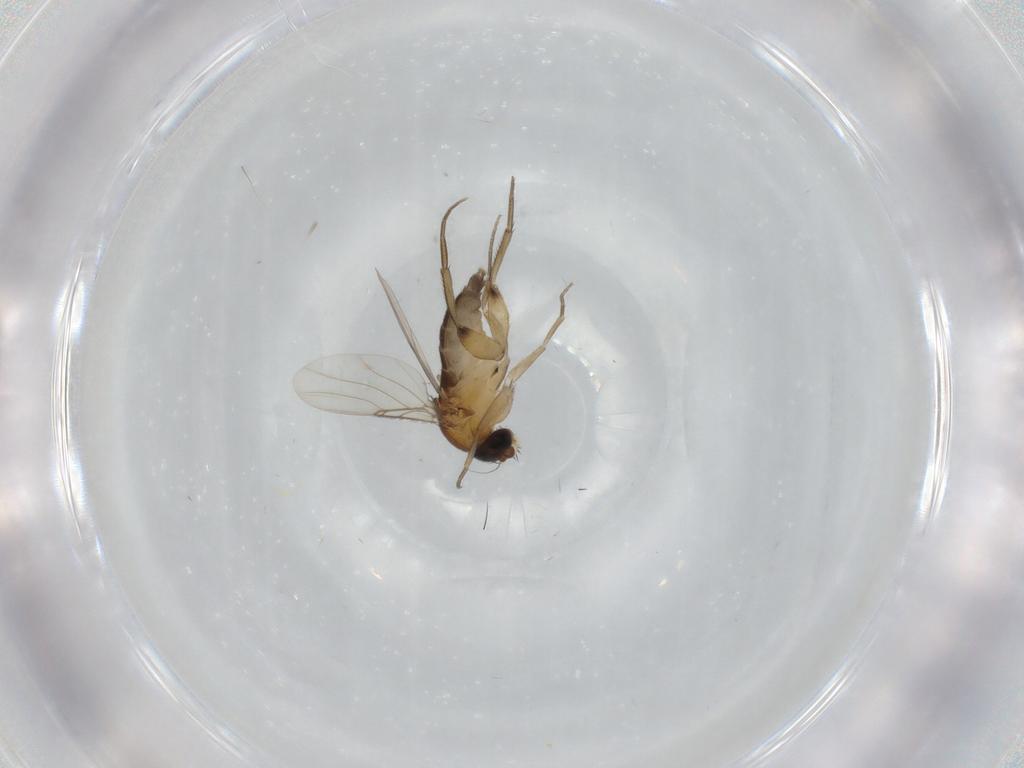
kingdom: Animalia
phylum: Arthropoda
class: Insecta
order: Diptera
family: Phoridae
